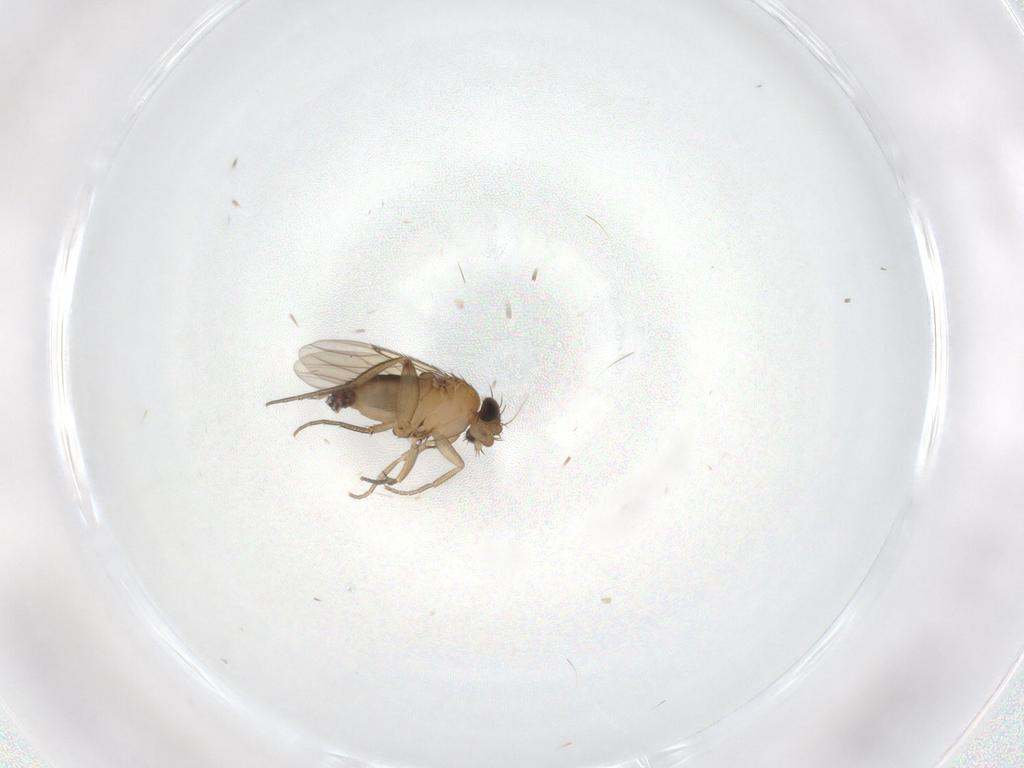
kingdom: Animalia
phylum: Arthropoda
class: Insecta
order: Diptera
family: Phoridae
